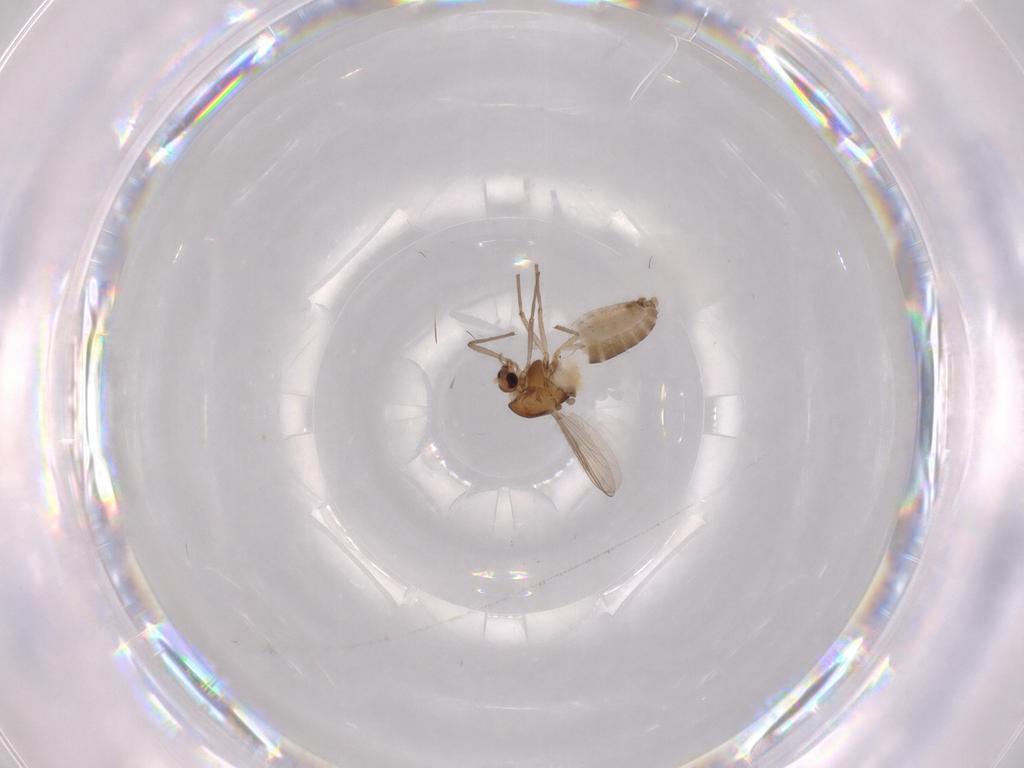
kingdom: Animalia
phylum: Arthropoda
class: Insecta
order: Diptera
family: Chironomidae
